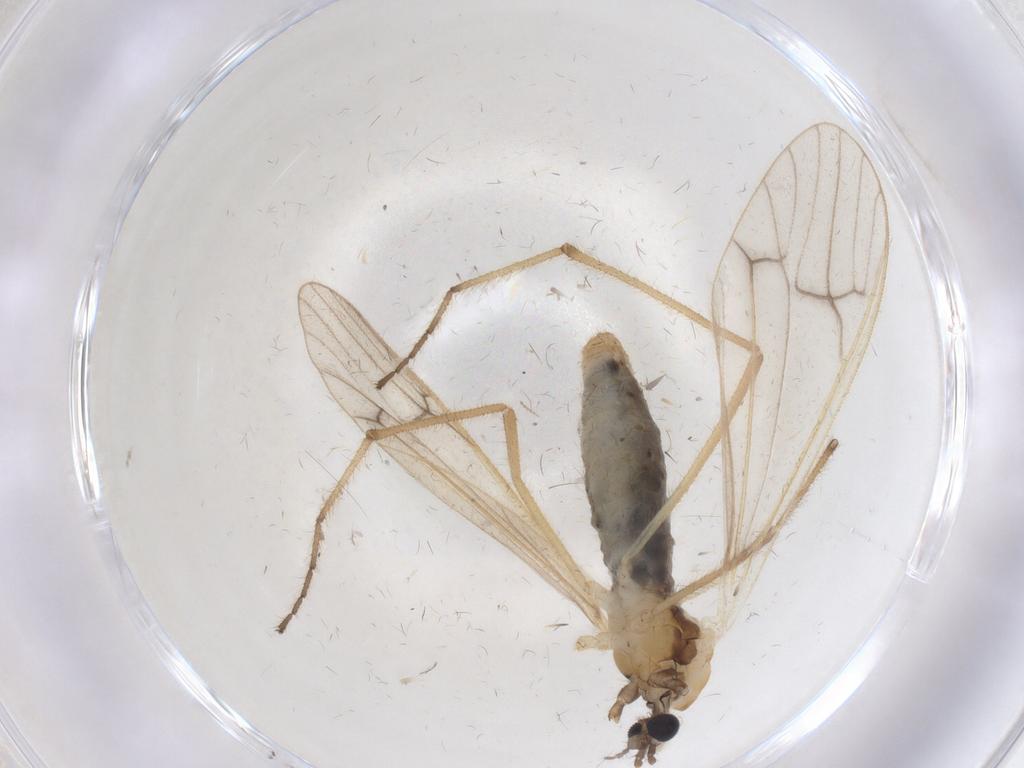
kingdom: Animalia
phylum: Arthropoda
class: Insecta
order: Diptera
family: Cecidomyiidae
